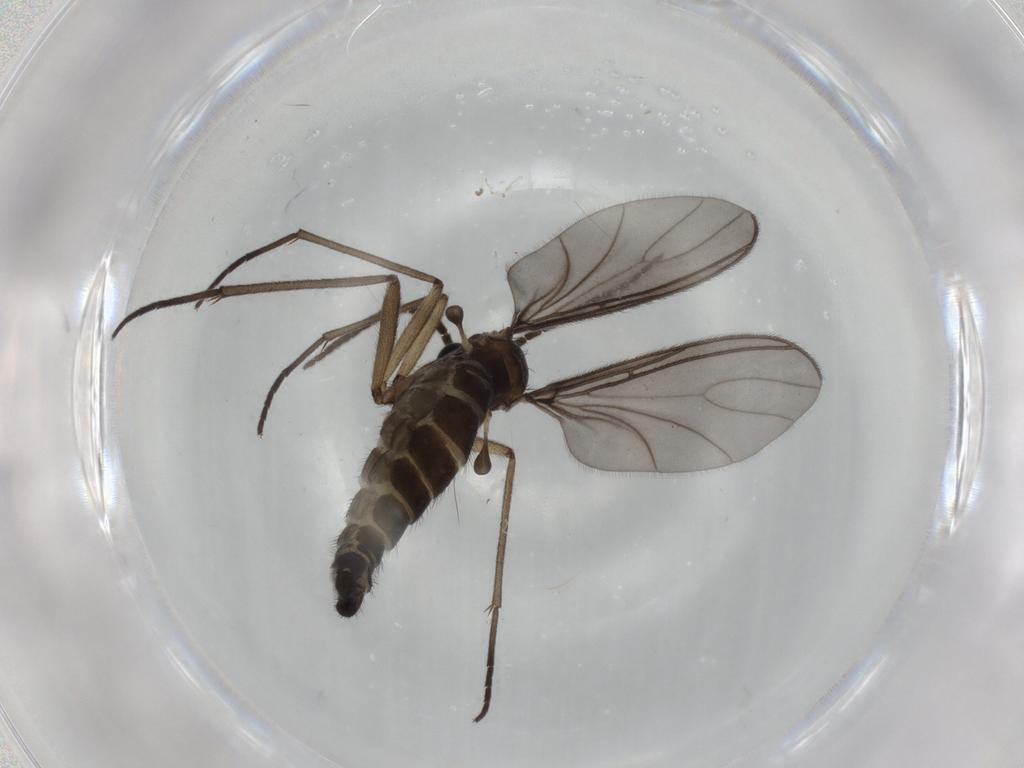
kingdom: Animalia
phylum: Arthropoda
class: Insecta
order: Diptera
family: Sciaridae
